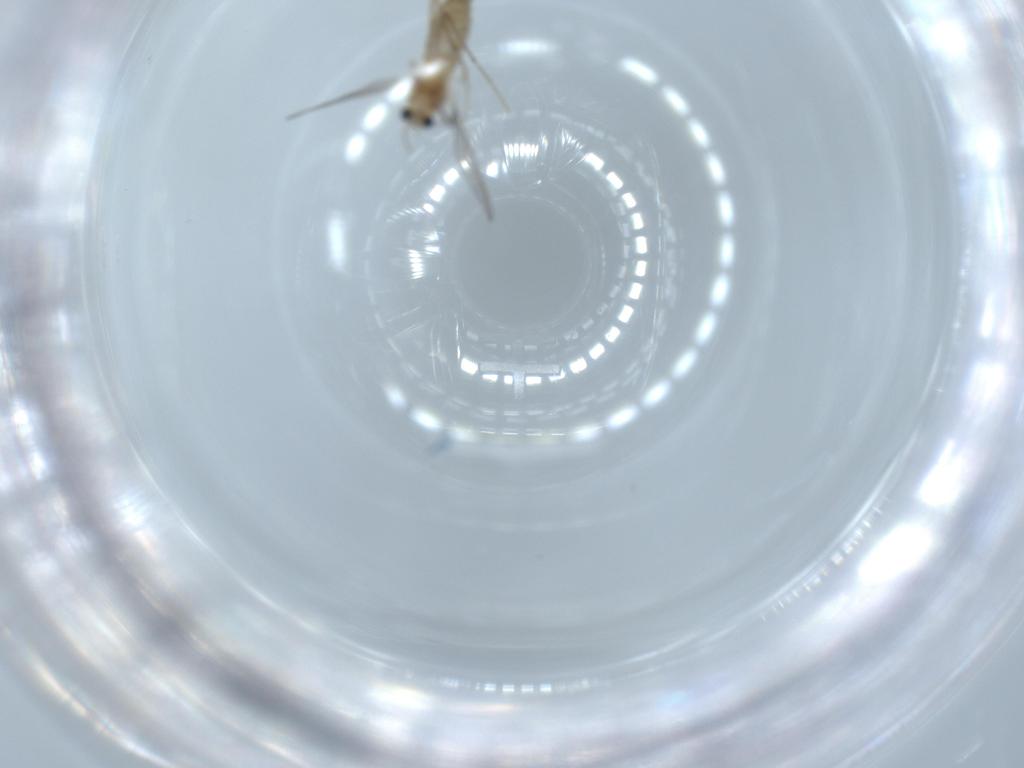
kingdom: Animalia
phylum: Arthropoda
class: Insecta
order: Diptera
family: Chironomidae
